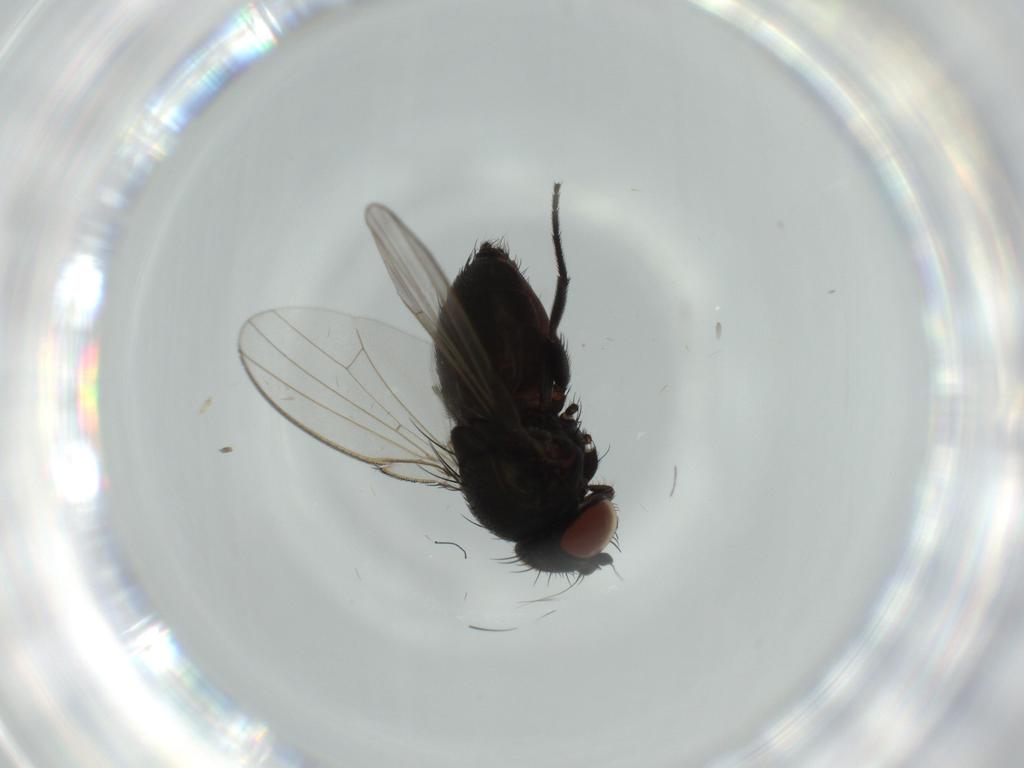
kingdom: Animalia
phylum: Arthropoda
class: Insecta
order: Diptera
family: Milichiidae
